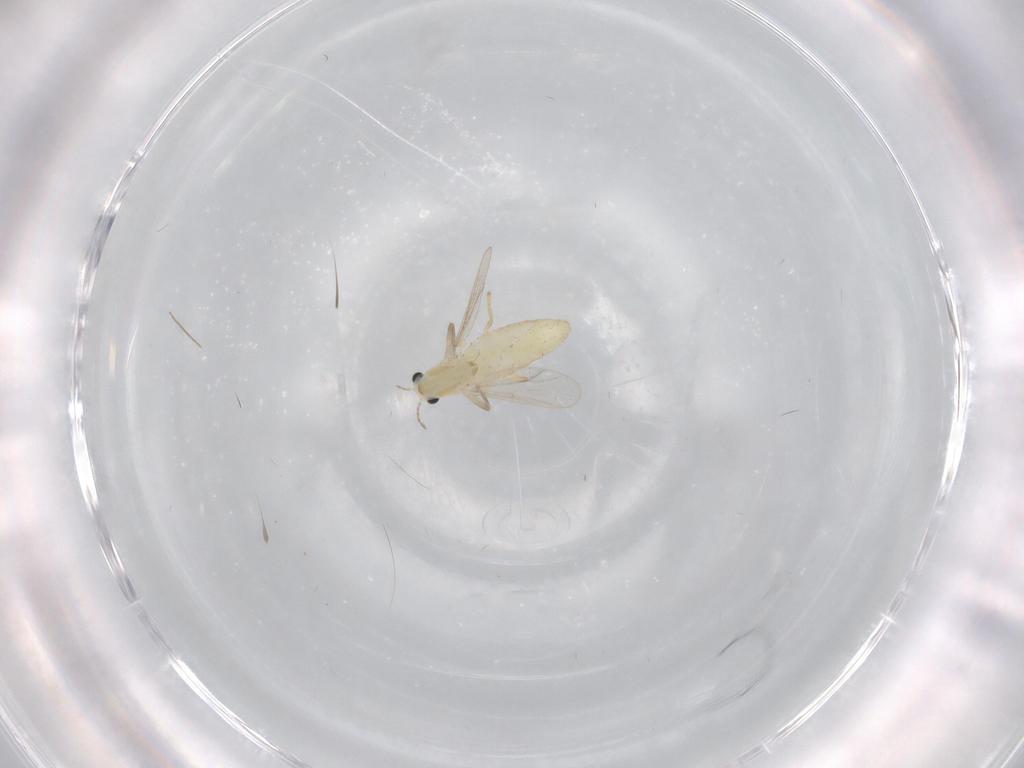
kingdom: Animalia
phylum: Arthropoda
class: Insecta
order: Diptera
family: Chironomidae
